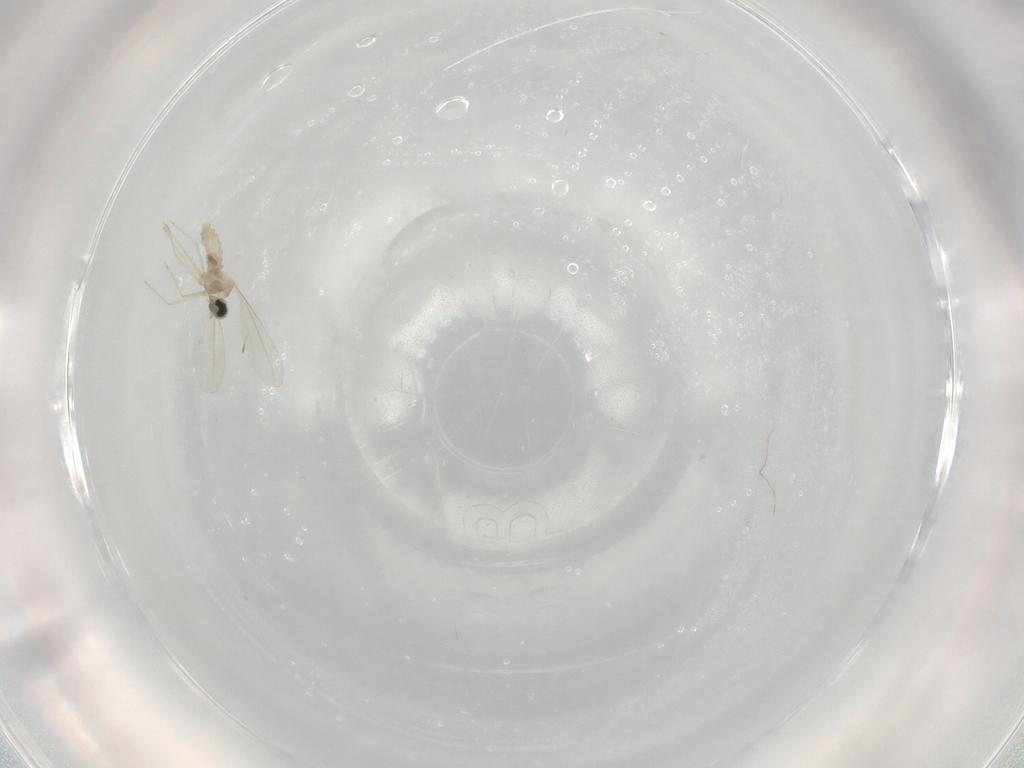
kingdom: Animalia
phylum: Arthropoda
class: Insecta
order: Diptera
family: Cecidomyiidae
